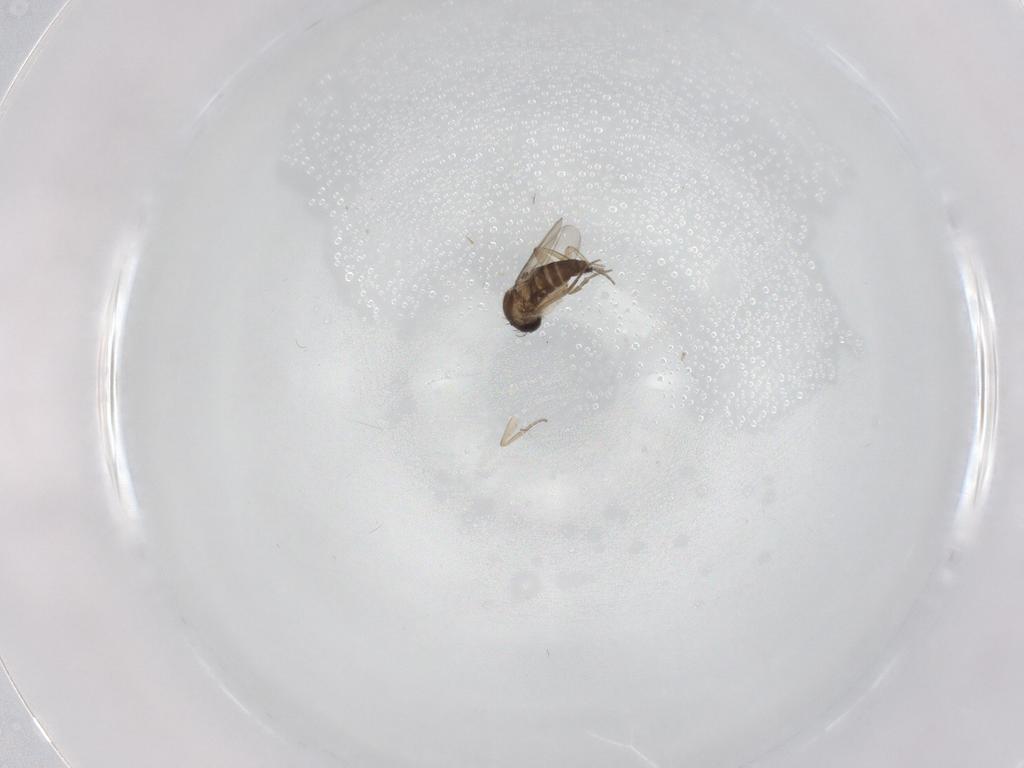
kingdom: Animalia
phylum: Arthropoda
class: Insecta
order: Diptera
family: Phoridae
